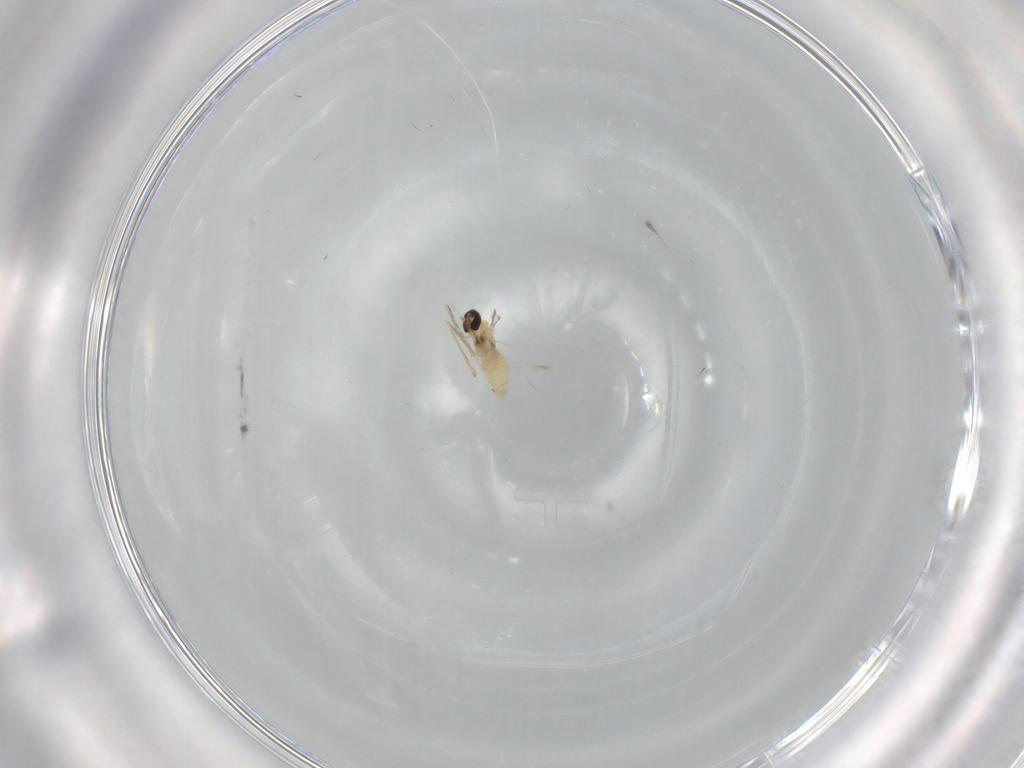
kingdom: Animalia
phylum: Arthropoda
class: Insecta
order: Diptera
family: Cecidomyiidae
